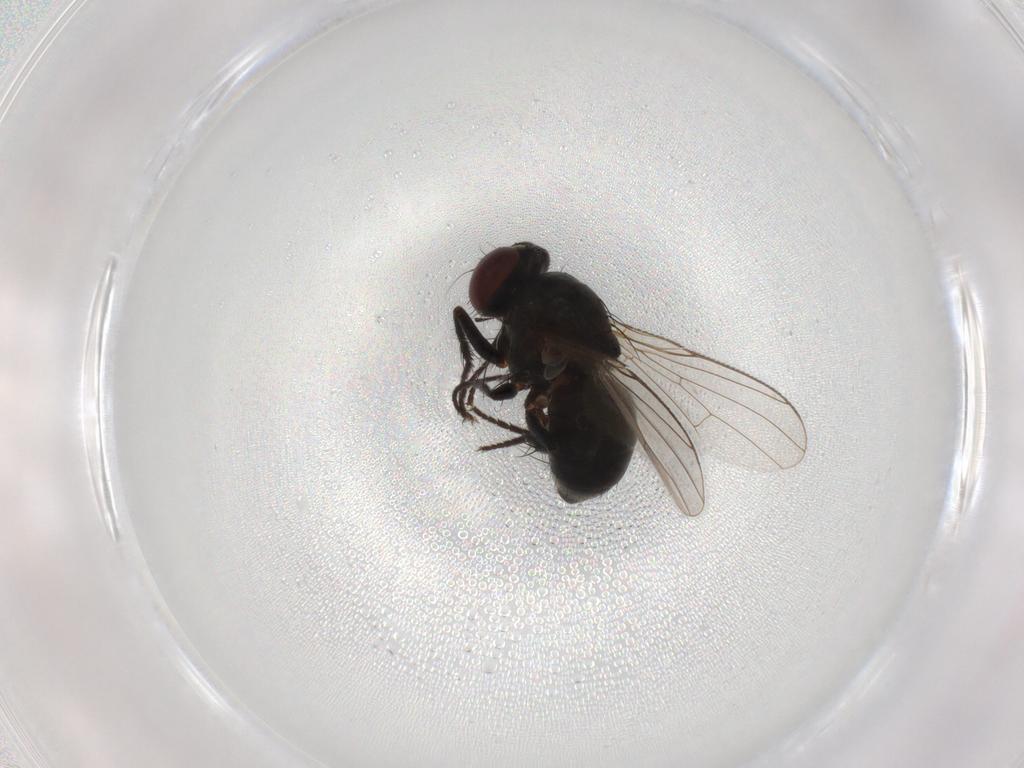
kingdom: Animalia
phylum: Arthropoda
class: Insecta
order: Diptera
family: Muscidae
